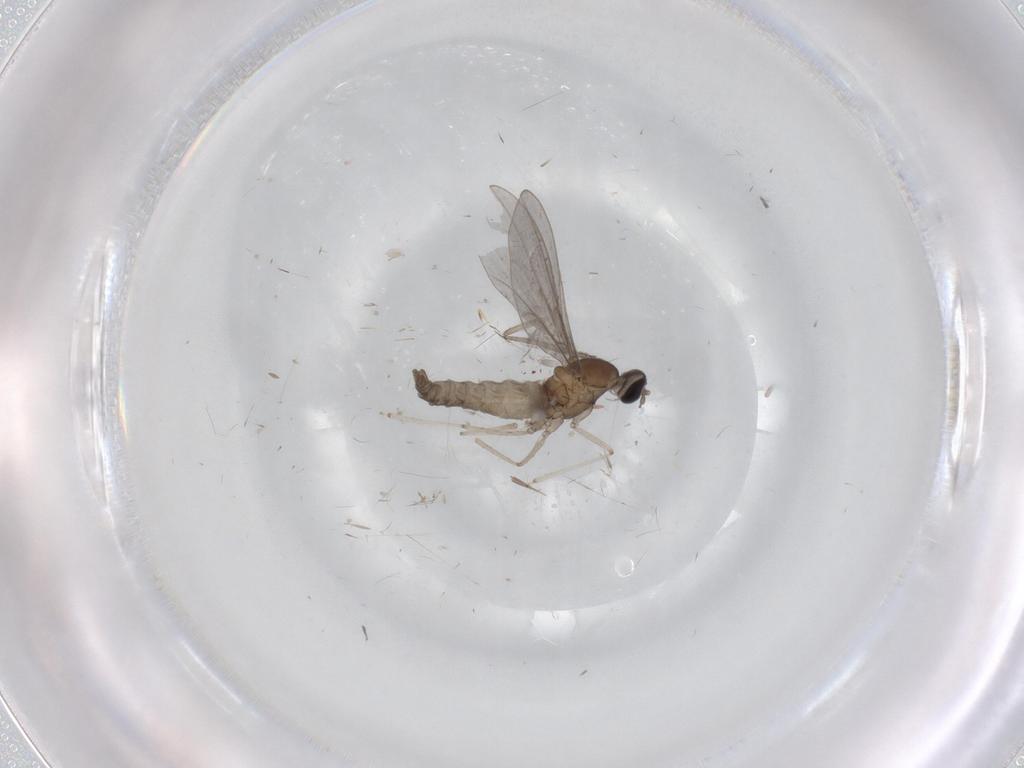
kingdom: Animalia
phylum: Arthropoda
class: Insecta
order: Diptera
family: Cecidomyiidae
